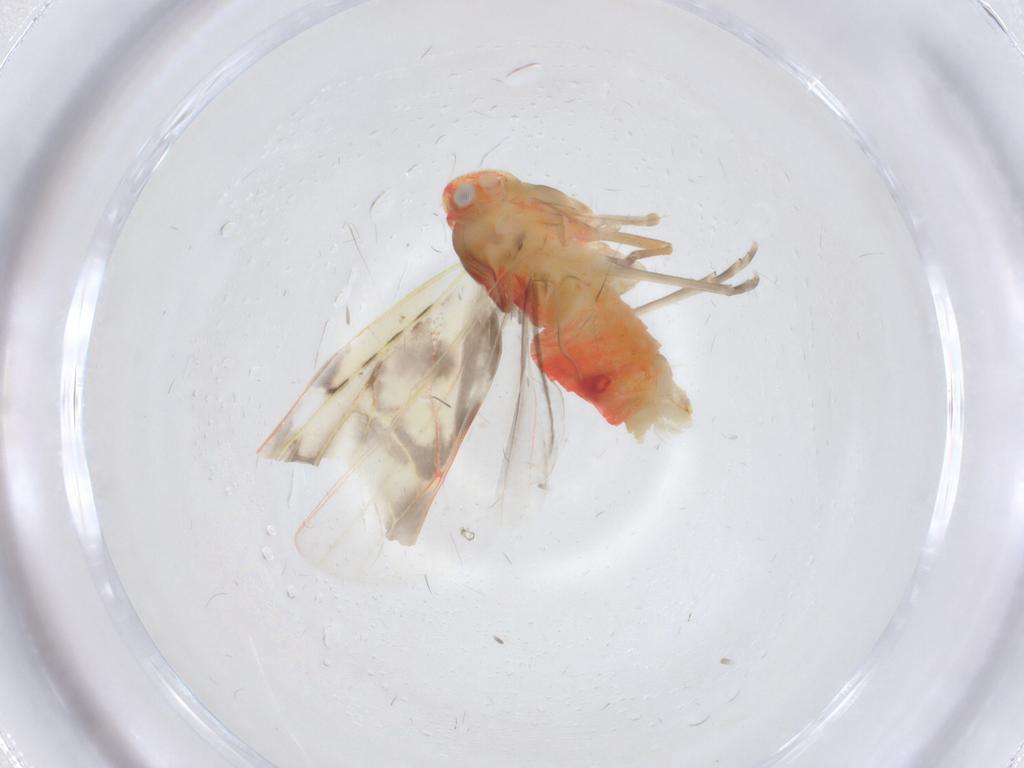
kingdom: Animalia
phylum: Arthropoda
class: Insecta
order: Hemiptera
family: Derbidae
